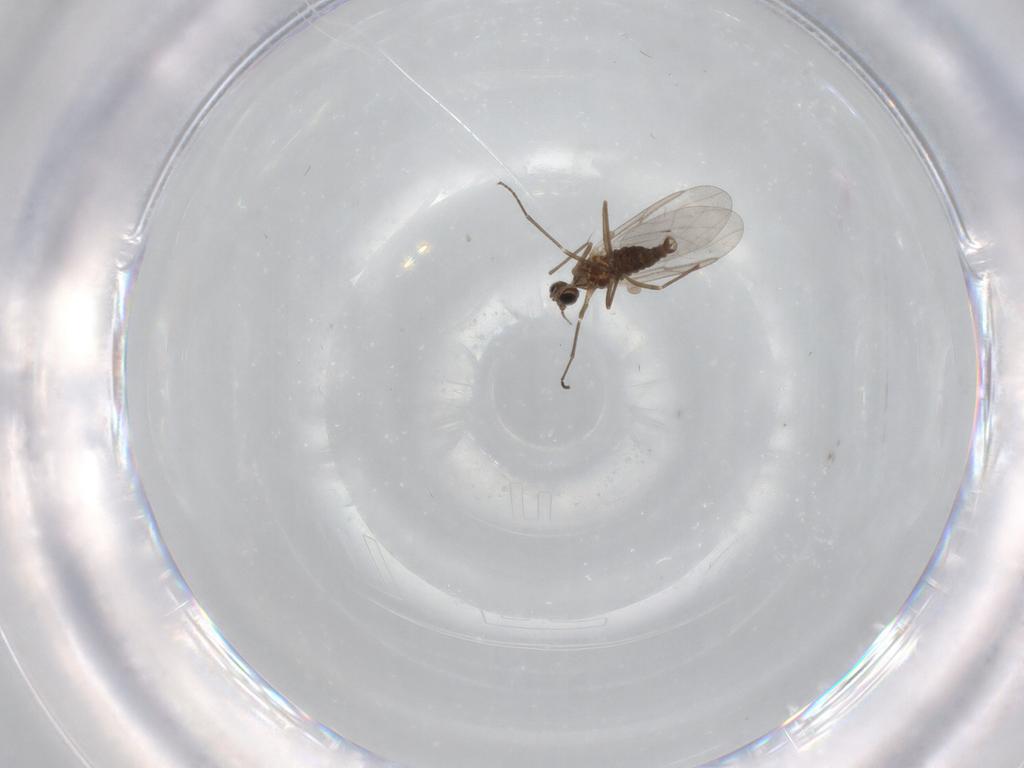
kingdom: Animalia
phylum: Arthropoda
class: Insecta
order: Diptera
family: Cecidomyiidae
